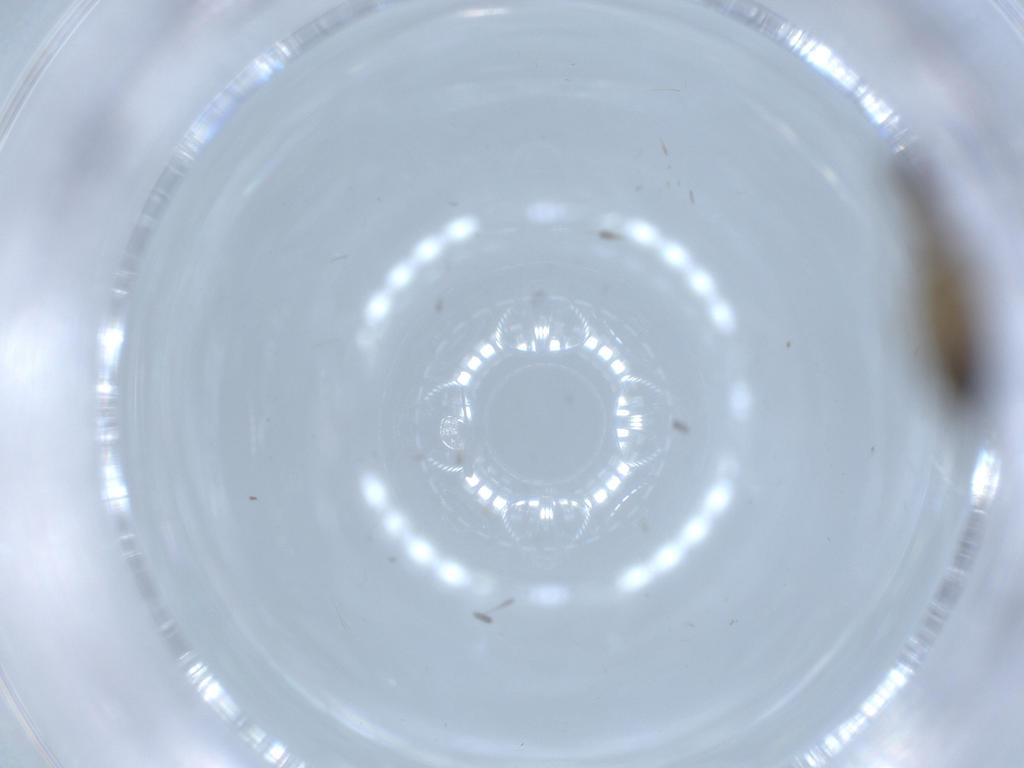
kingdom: Animalia
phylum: Arthropoda
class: Insecta
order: Diptera
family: Sciaridae
